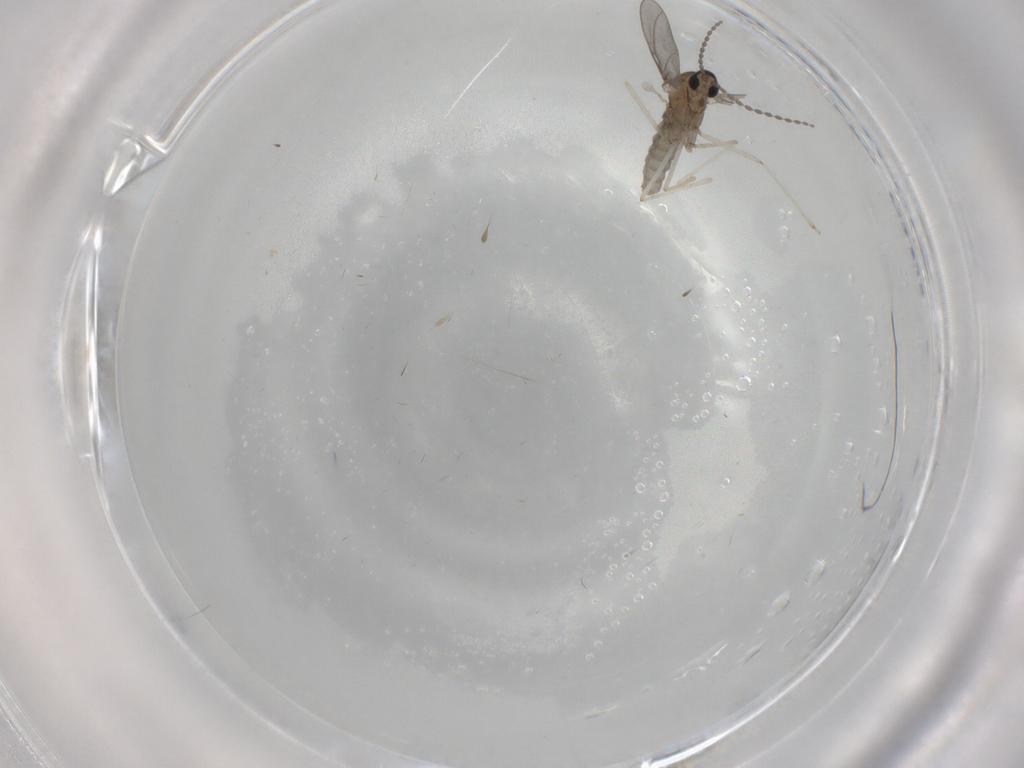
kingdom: Animalia
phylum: Arthropoda
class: Insecta
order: Diptera
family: Cecidomyiidae
